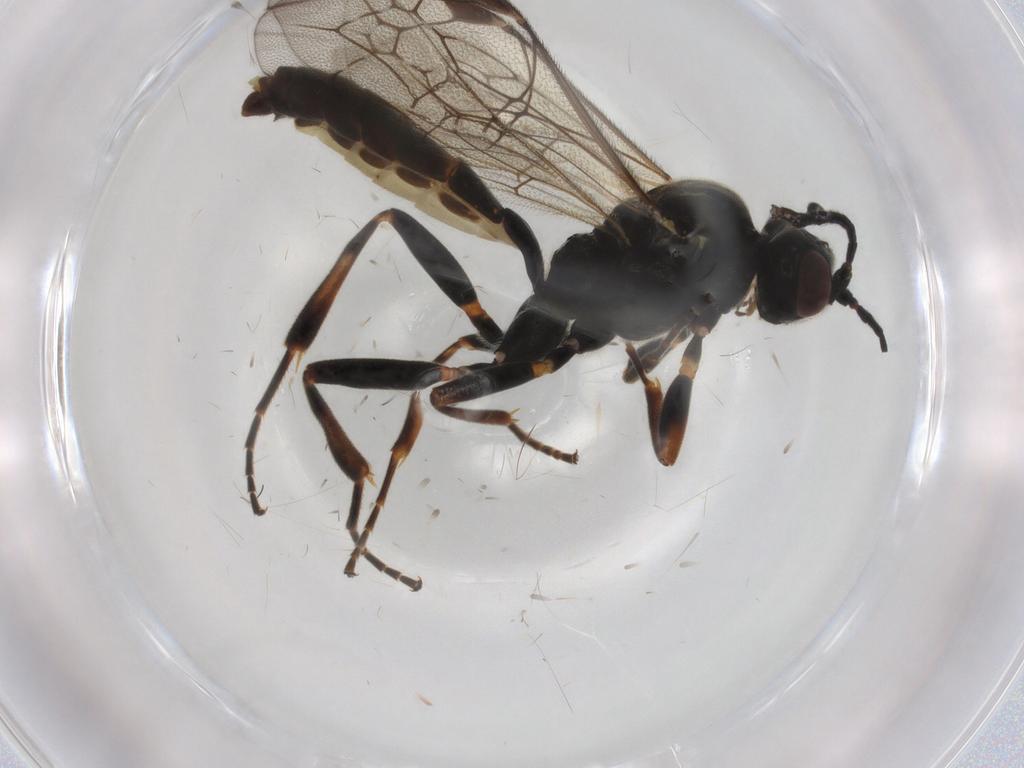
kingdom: Animalia
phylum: Arthropoda
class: Insecta
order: Hymenoptera
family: Ichneumonidae
